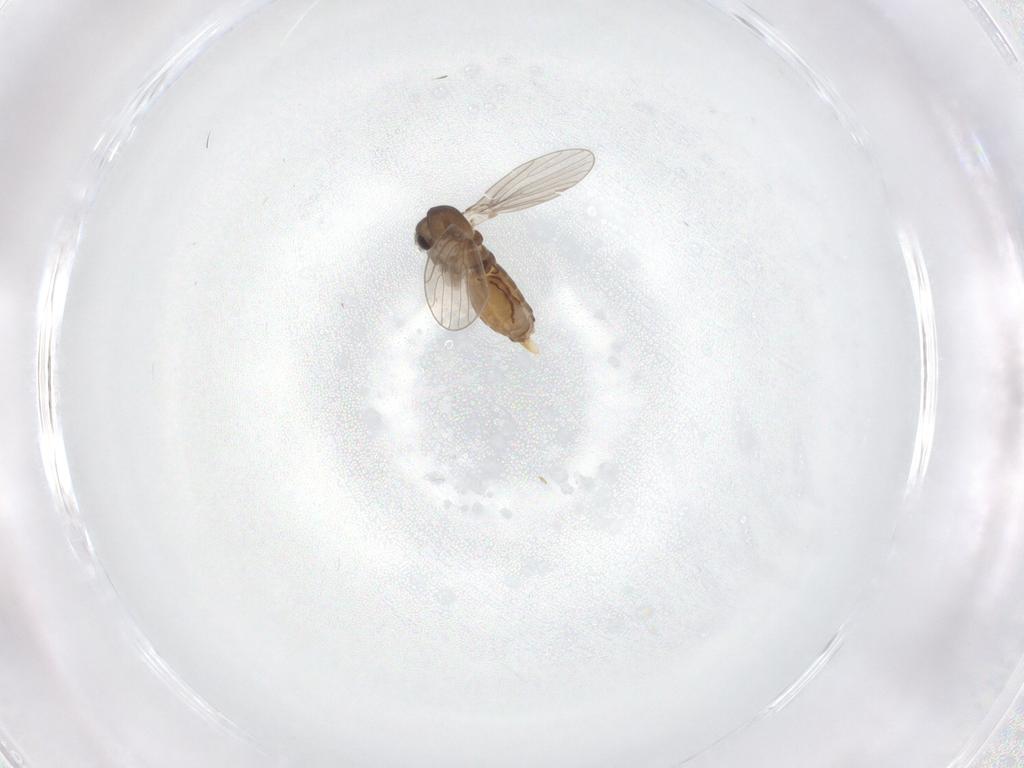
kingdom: Animalia
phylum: Arthropoda
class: Insecta
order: Diptera
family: Psychodidae
